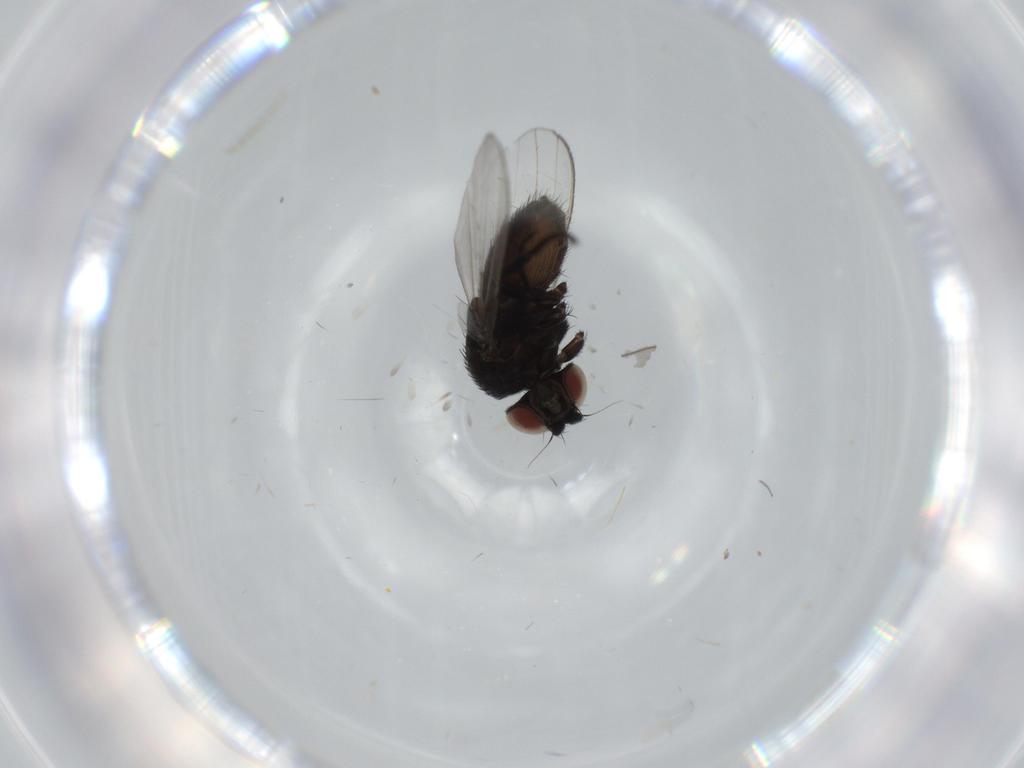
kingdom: Animalia
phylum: Arthropoda
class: Insecta
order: Diptera
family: Milichiidae
